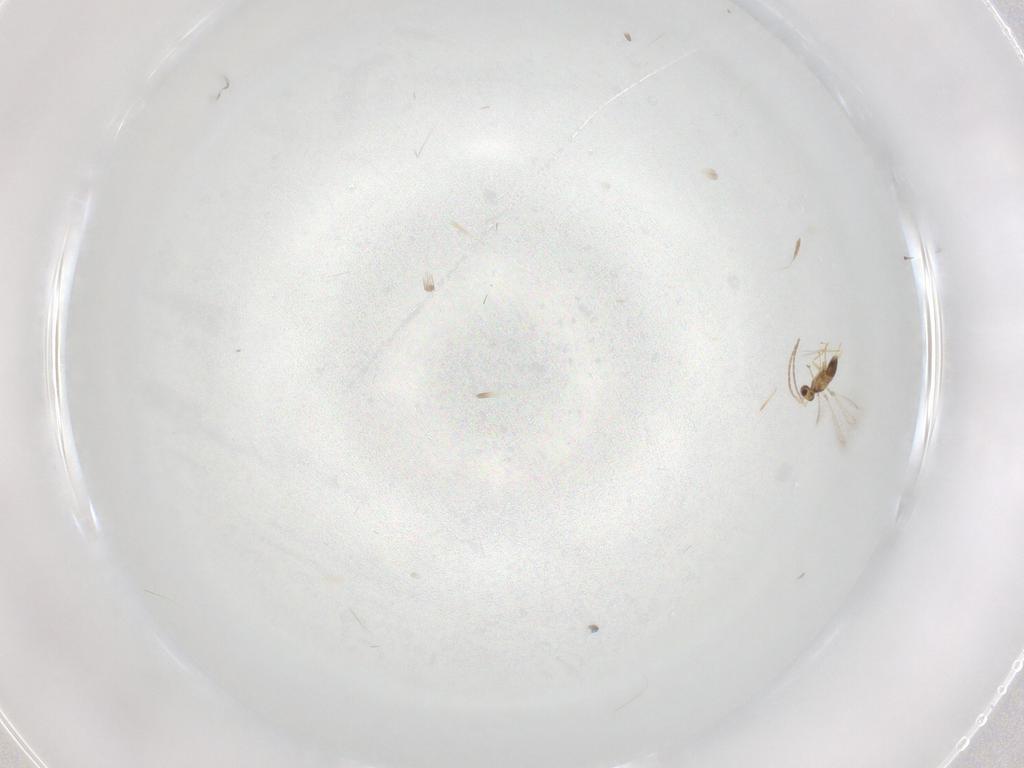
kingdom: Animalia
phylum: Arthropoda
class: Insecta
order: Hymenoptera
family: Mymaridae
